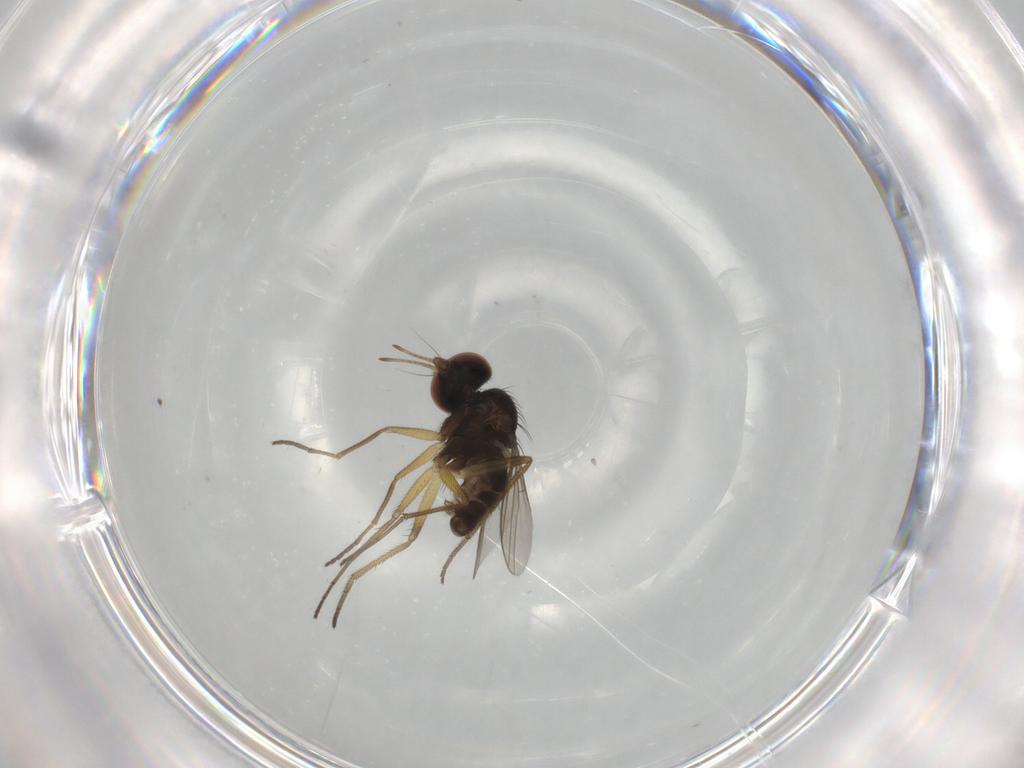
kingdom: Animalia
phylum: Arthropoda
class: Insecta
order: Diptera
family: Dolichopodidae
